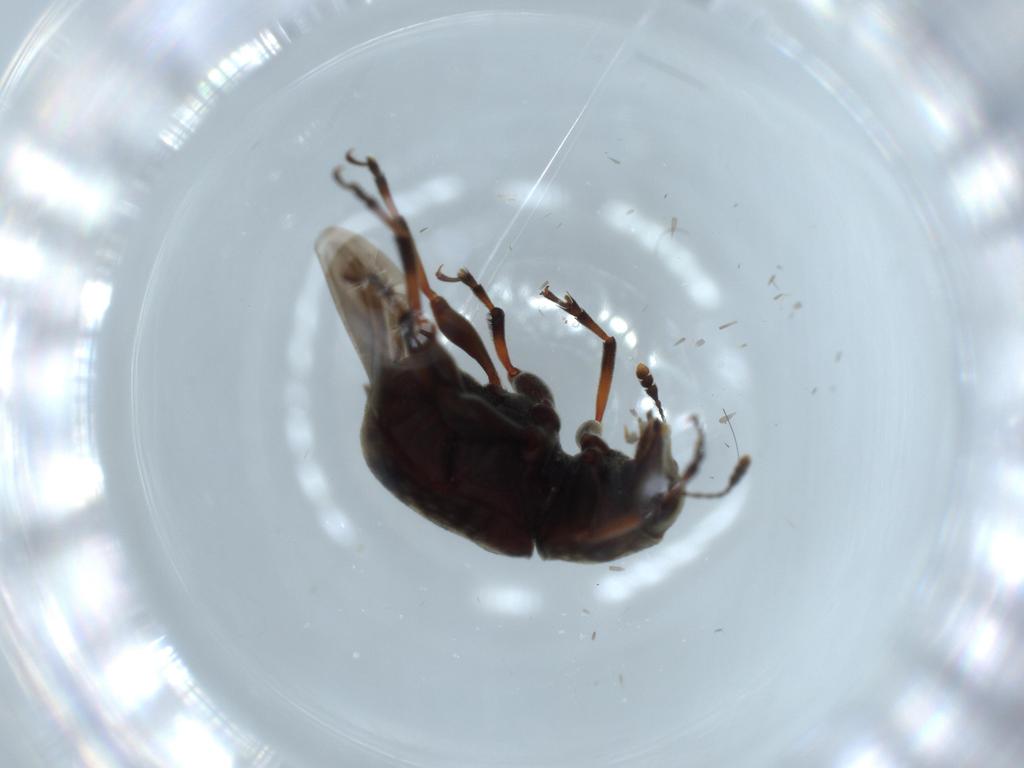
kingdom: Animalia
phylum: Arthropoda
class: Insecta
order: Coleoptera
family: Anthribidae
